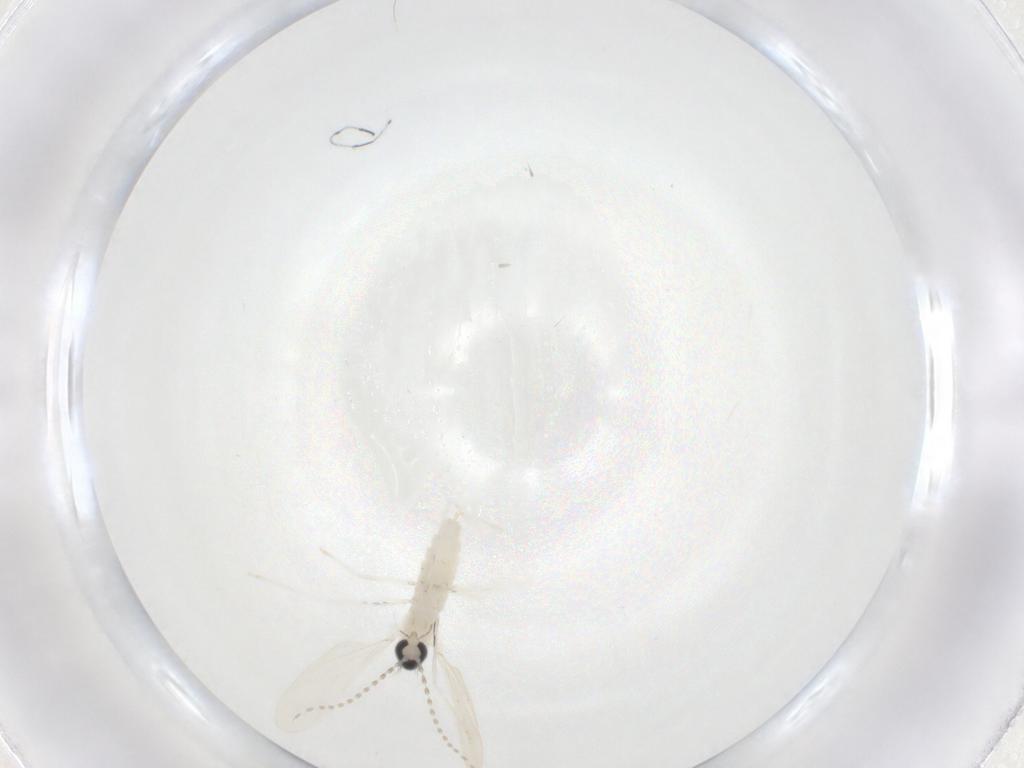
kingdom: Animalia
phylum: Arthropoda
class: Insecta
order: Diptera
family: Cecidomyiidae
